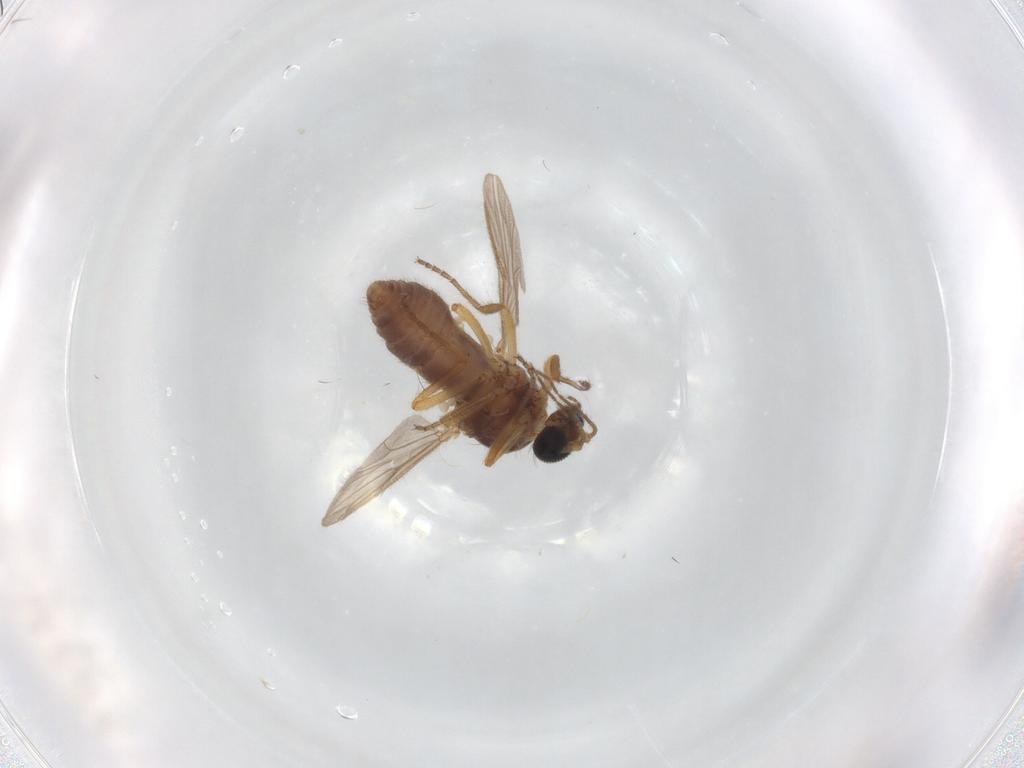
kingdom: Animalia
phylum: Arthropoda
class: Insecta
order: Diptera
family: Ceratopogonidae
